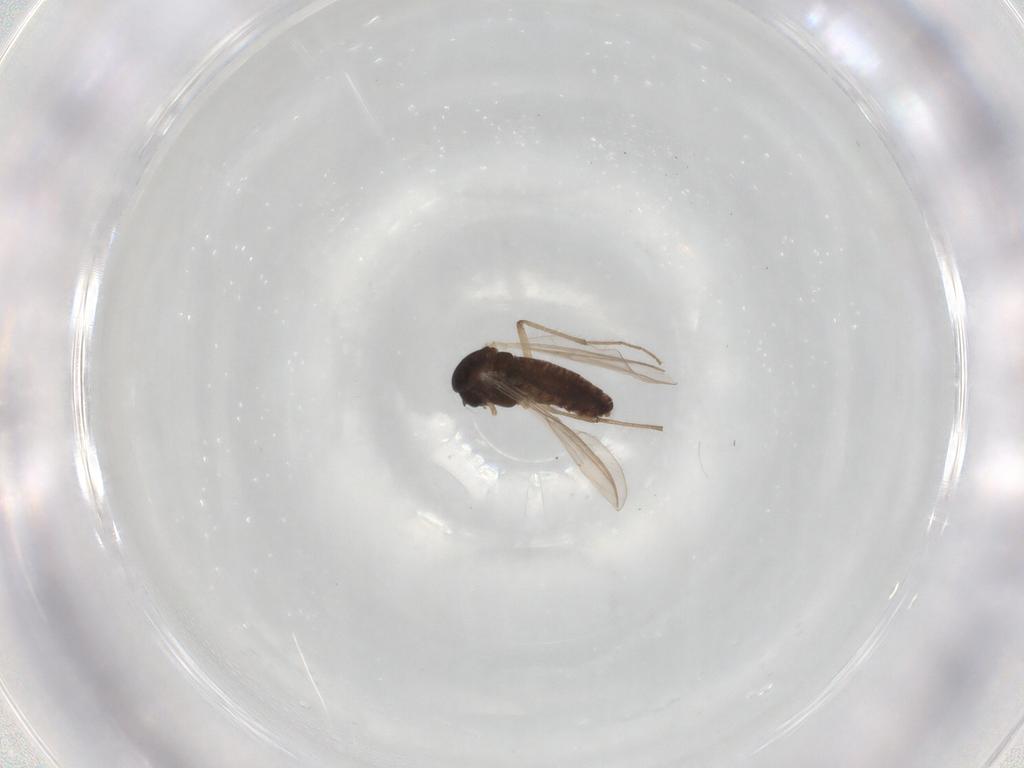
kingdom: Animalia
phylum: Arthropoda
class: Insecta
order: Diptera
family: Chironomidae
